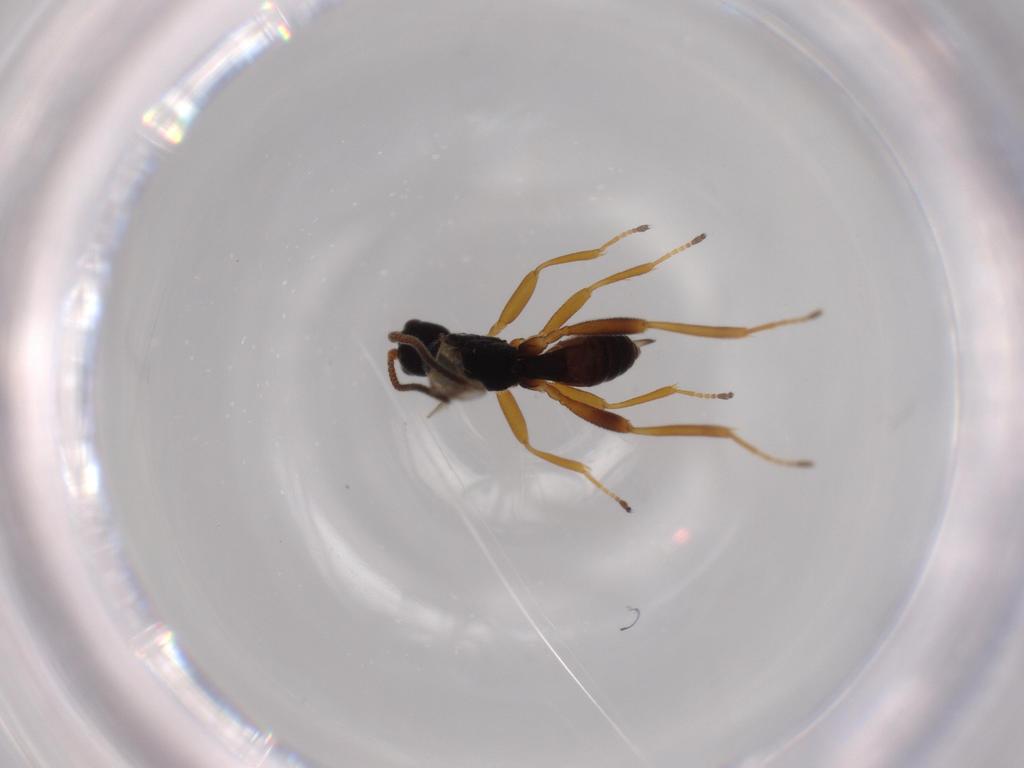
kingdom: Animalia
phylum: Arthropoda
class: Insecta
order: Hymenoptera
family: Braconidae
